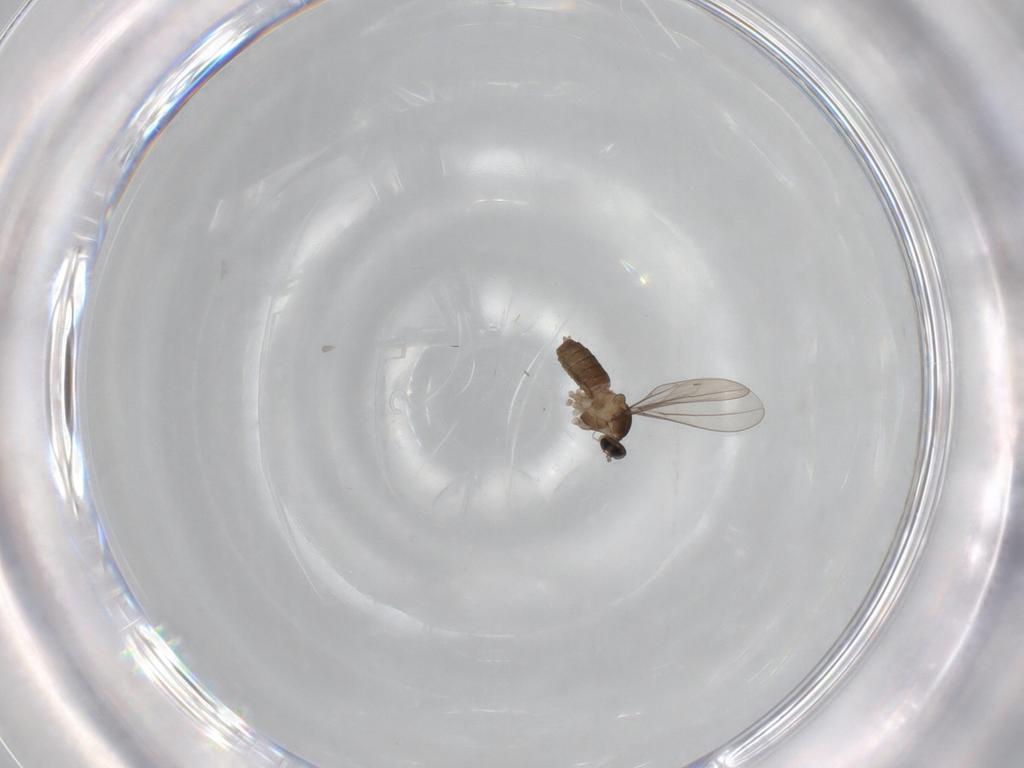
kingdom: Animalia
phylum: Arthropoda
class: Insecta
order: Diptera
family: Cecidomyiidae
